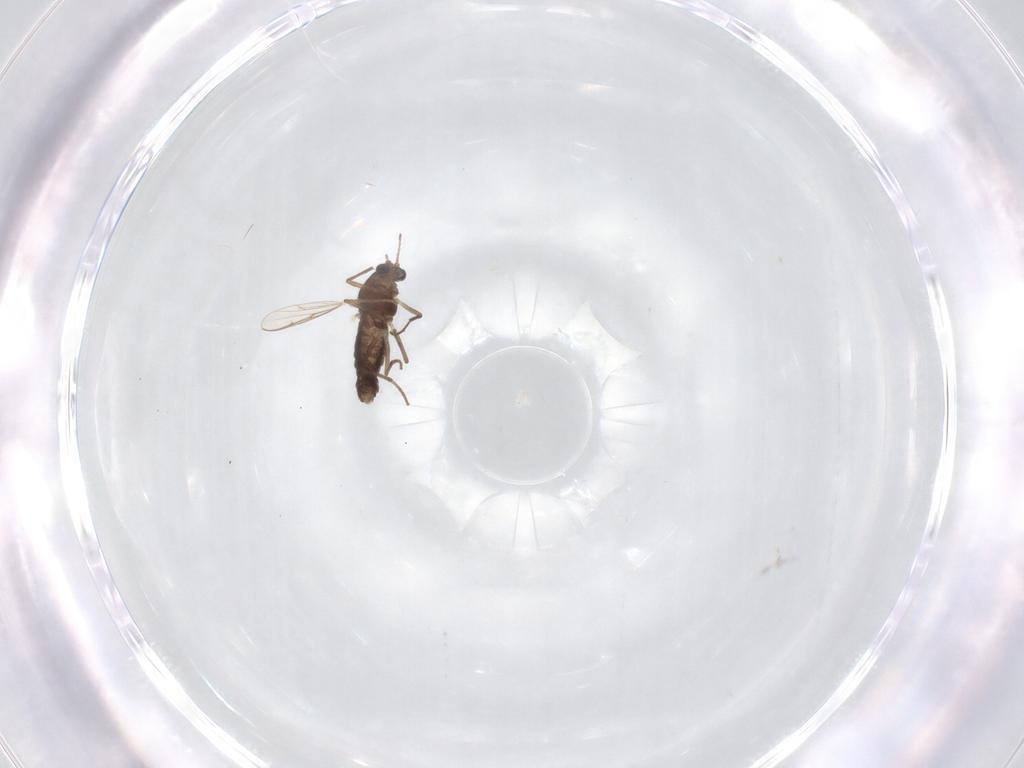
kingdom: Animalia
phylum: Arthropoda
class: Insecta
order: Diptera
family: Chironomidae
